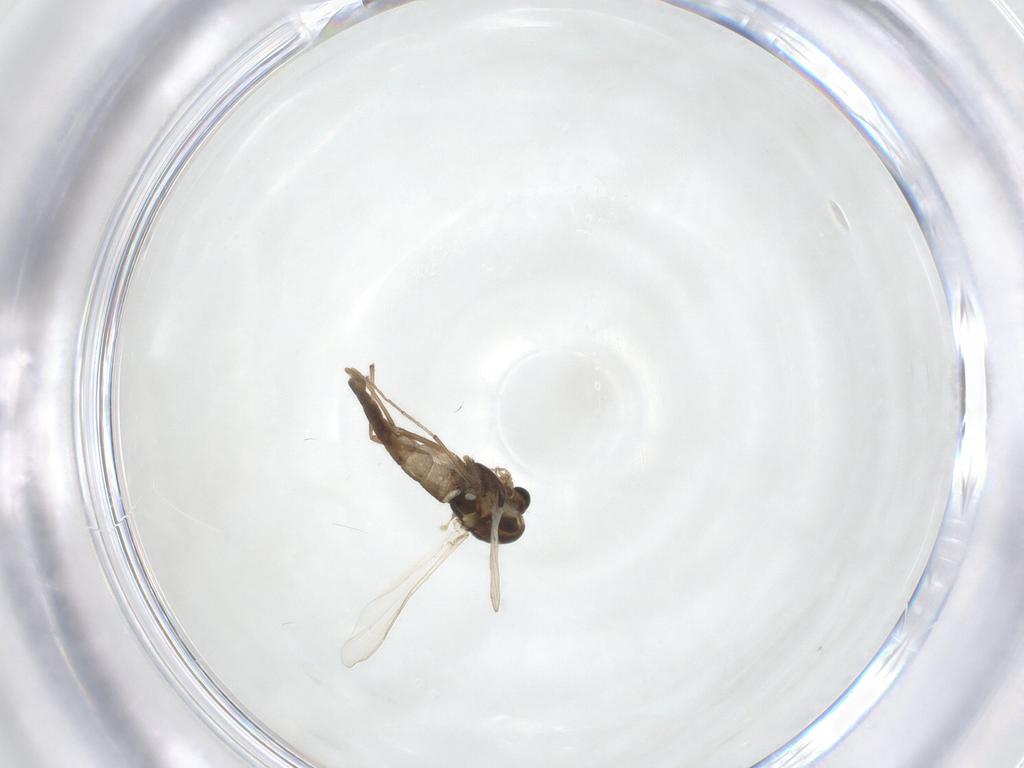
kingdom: Animalia
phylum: Arthropoda
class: Insecta
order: Diptera
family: Chironomidae
